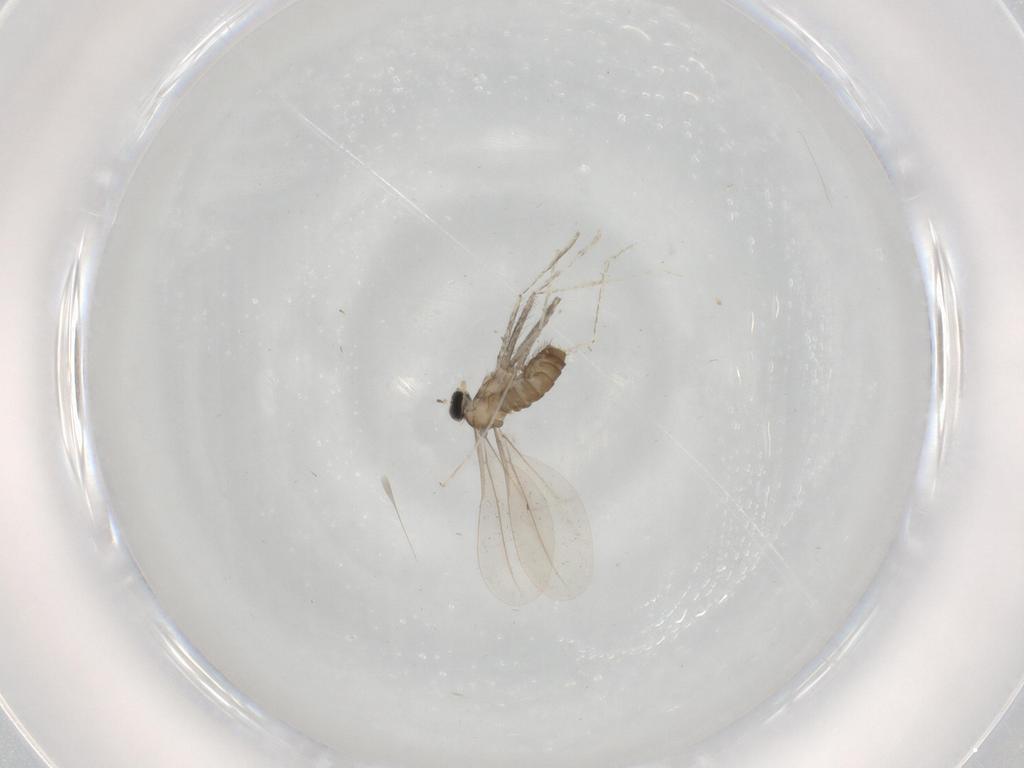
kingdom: Animalia
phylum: Arthropoda
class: Insecta
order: Diptera
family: Cecidomyiidae
